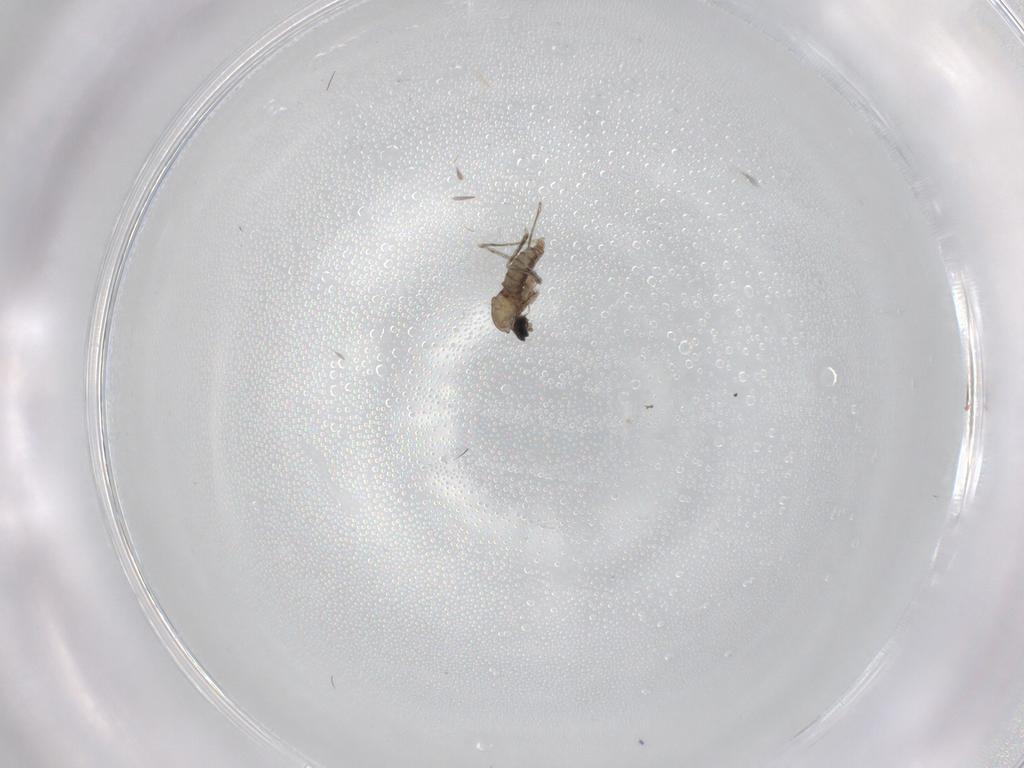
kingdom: Animalia
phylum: Arthropoda
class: Insecta
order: Diptera
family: Cecidomyiidae
